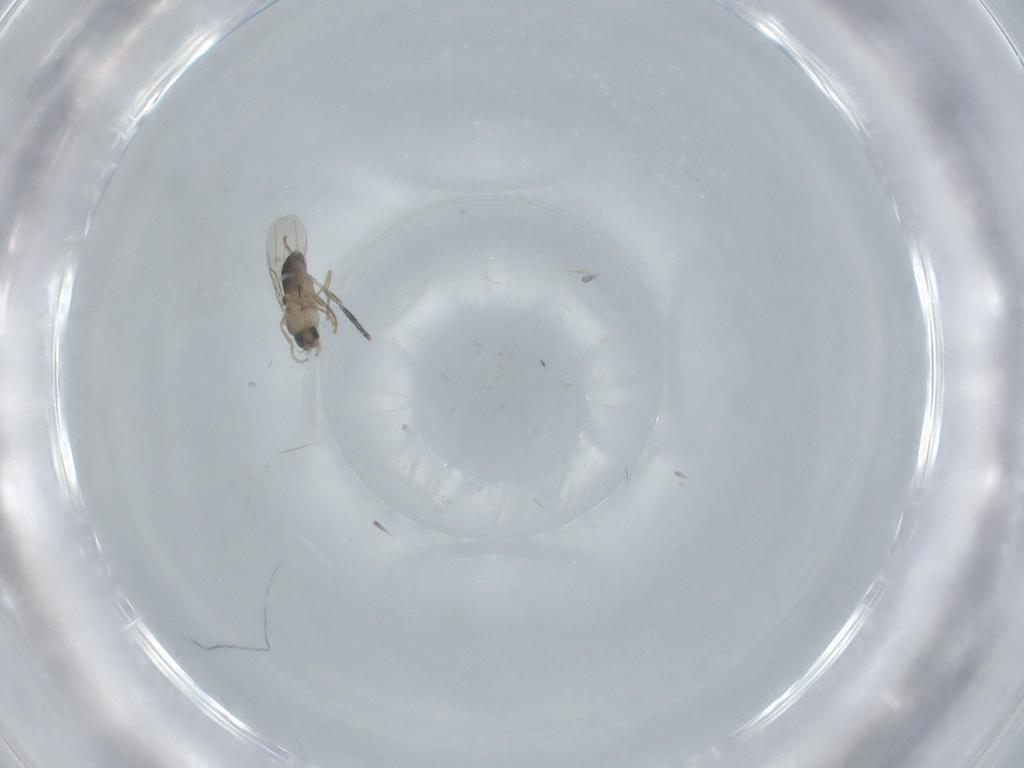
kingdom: Animalia
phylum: Arthropoda
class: Insecta
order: Diptera
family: Phoridae
